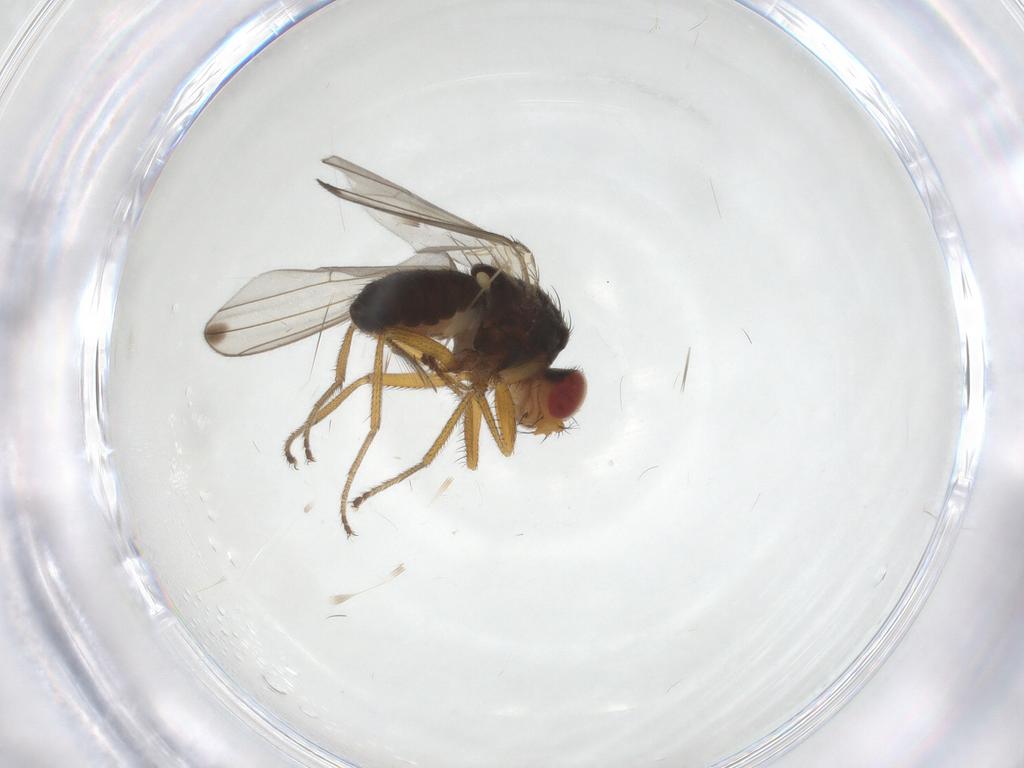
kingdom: Animalia
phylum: Arthropoda
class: Insecta
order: Diptera
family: Drosophilidae
